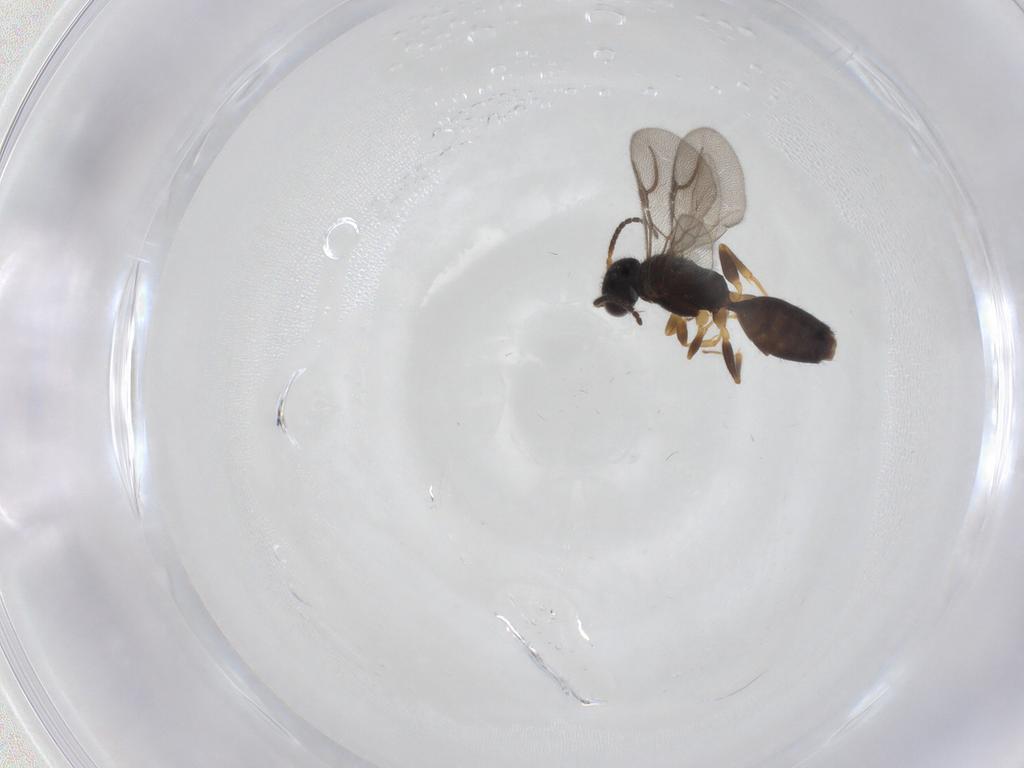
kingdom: Animalia
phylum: Arthropoda
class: Insecta
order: Hymenoptera
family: Bethylidae
